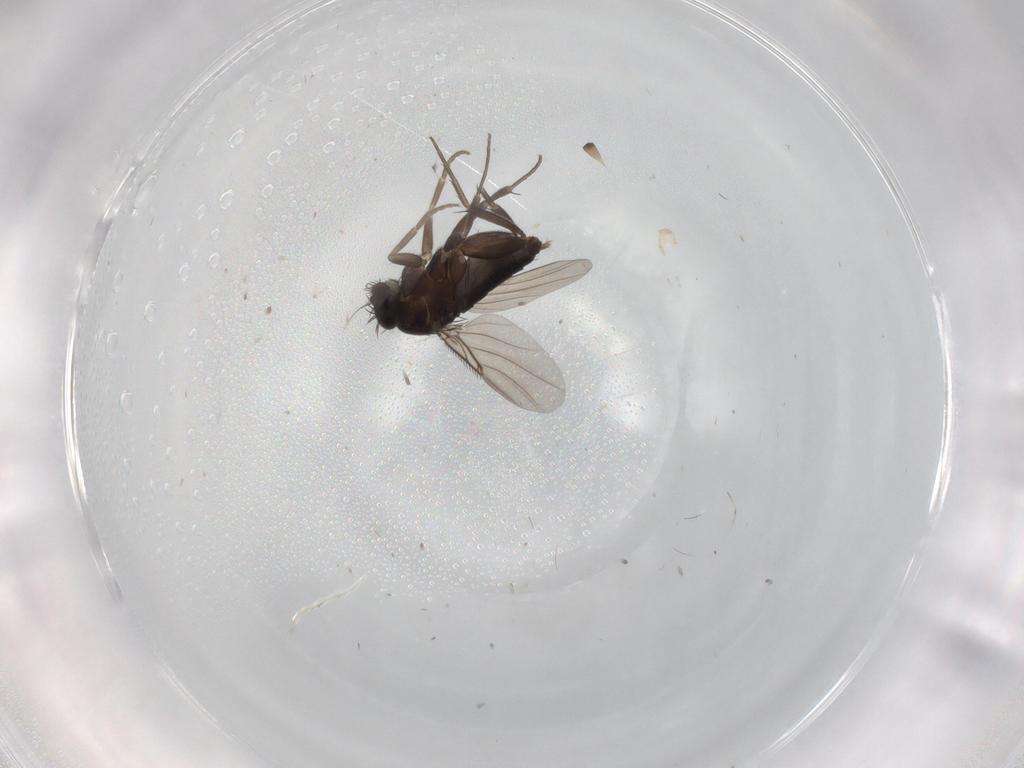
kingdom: Animalia
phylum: Arthropoda
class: Insecta
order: Diptera
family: Phoridae
